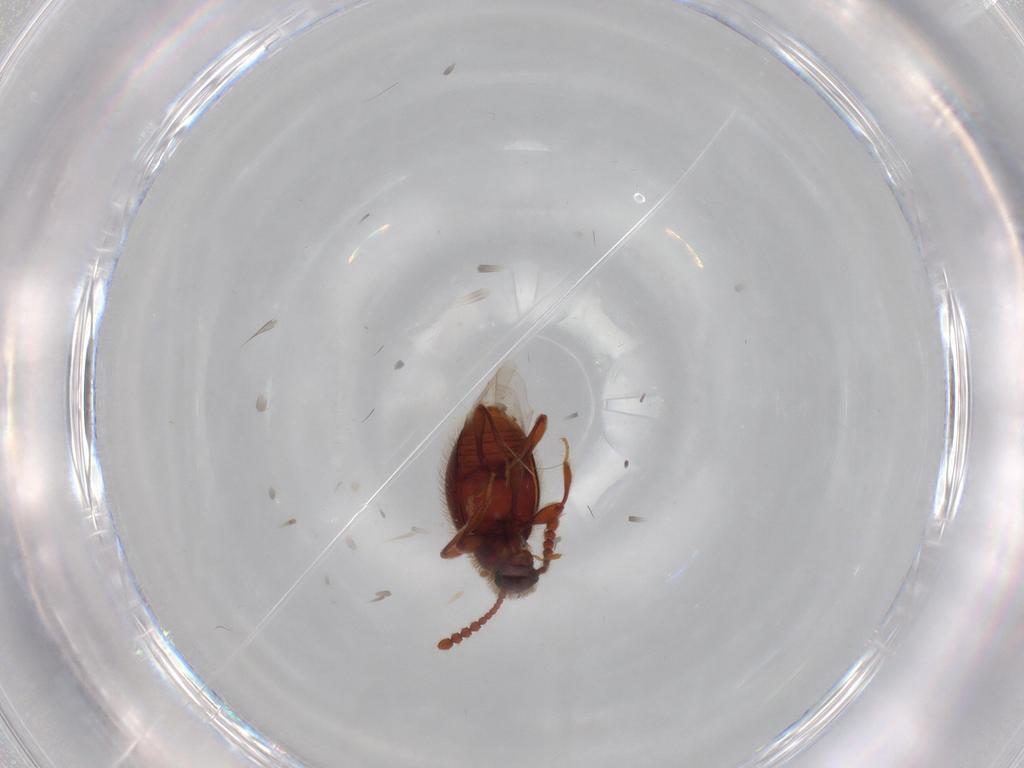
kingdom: Animalia
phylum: Arthropoda
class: Insecta
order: Coleoptera
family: Staphylinidae
